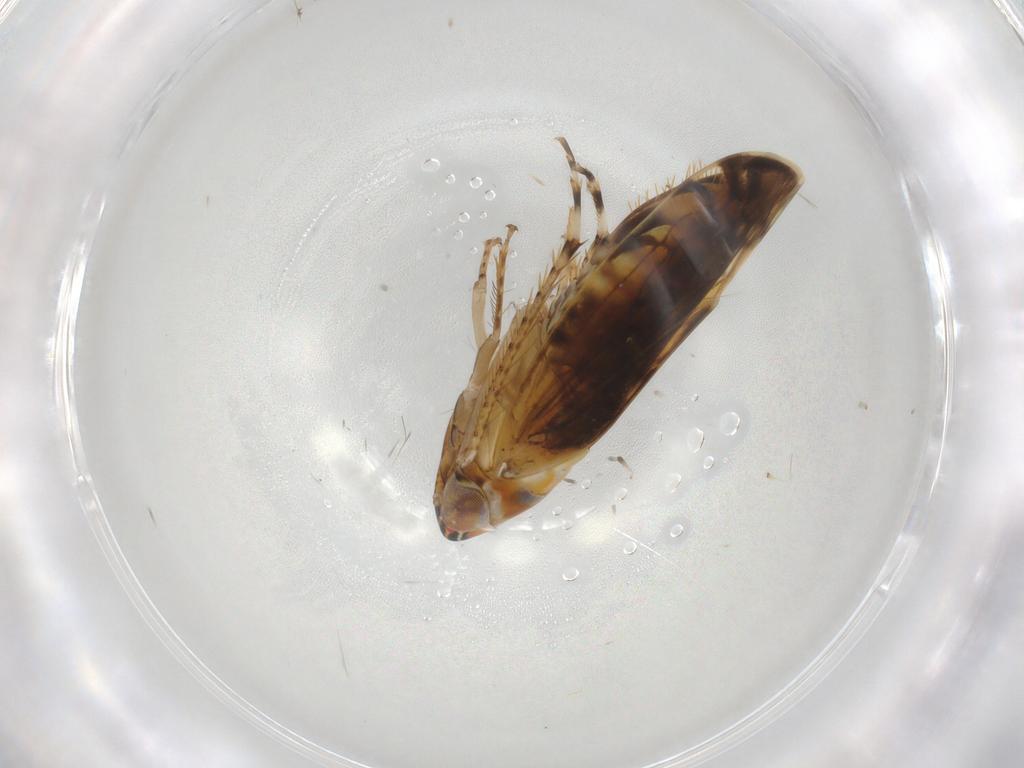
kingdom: Animalia
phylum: Arthropoda
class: Insecta
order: Hemiptera
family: Cicadellidae
